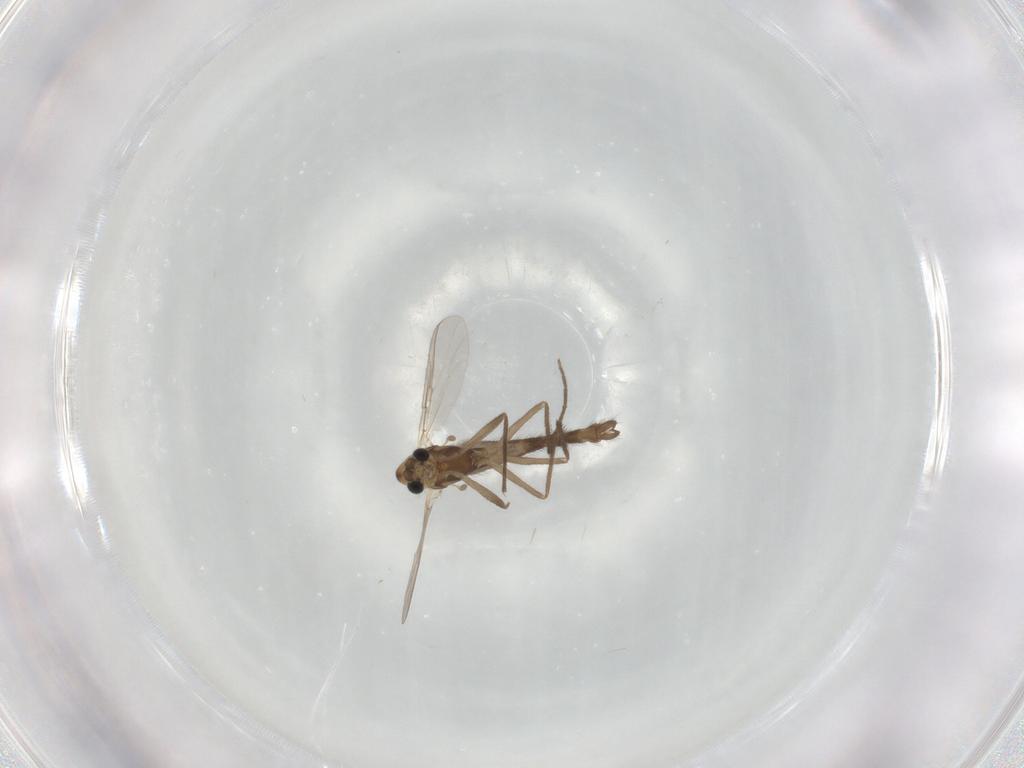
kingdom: Animalia
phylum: Arthropoda
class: Insecta
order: Diptera
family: Chironomidae
